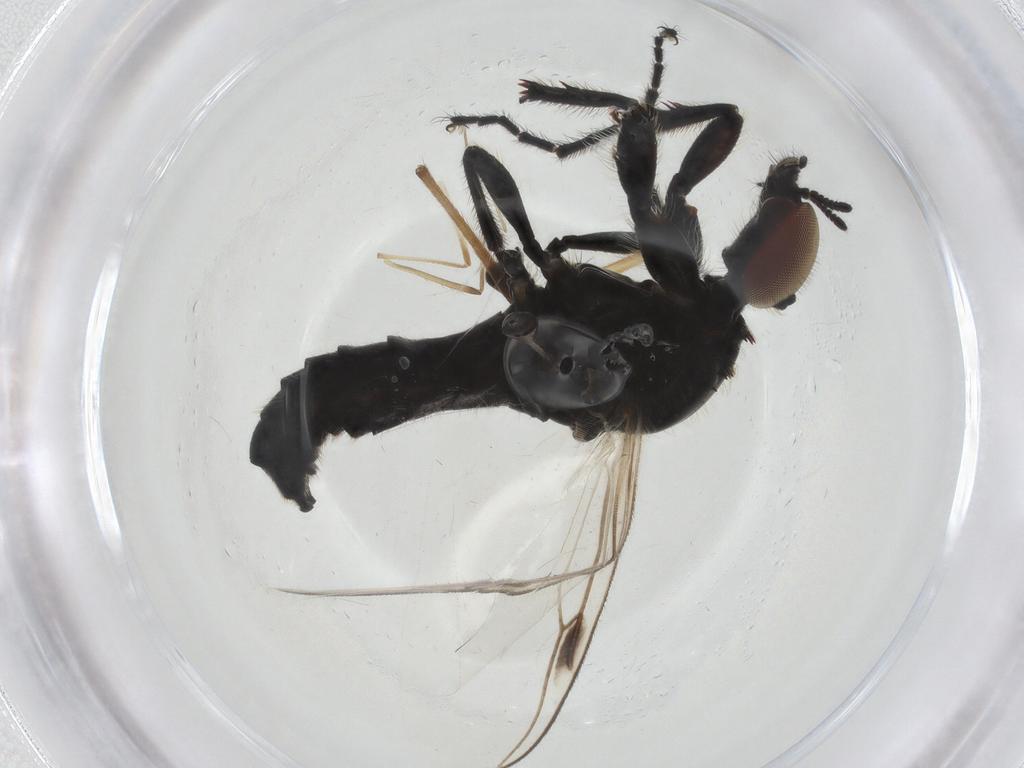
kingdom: Animalia
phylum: Arthropoda
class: Insecta
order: Diptera
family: Bibionidae
